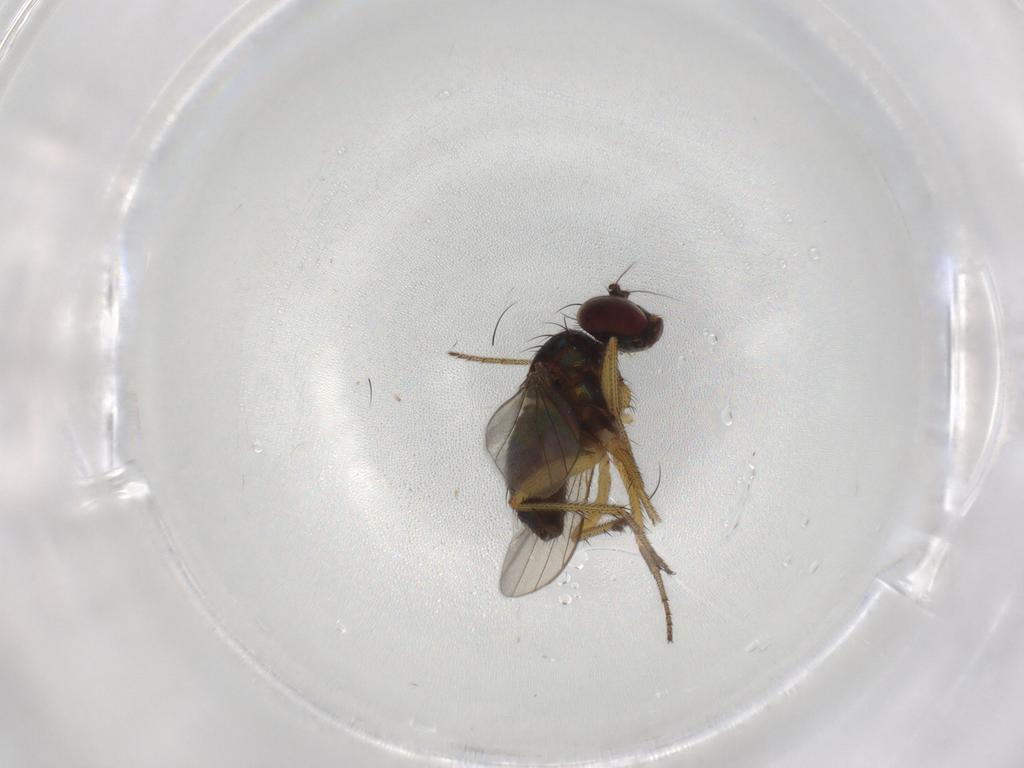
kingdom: Animalia
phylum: Arthropoda
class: Insecta
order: Diptera
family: Dolichopodidae
